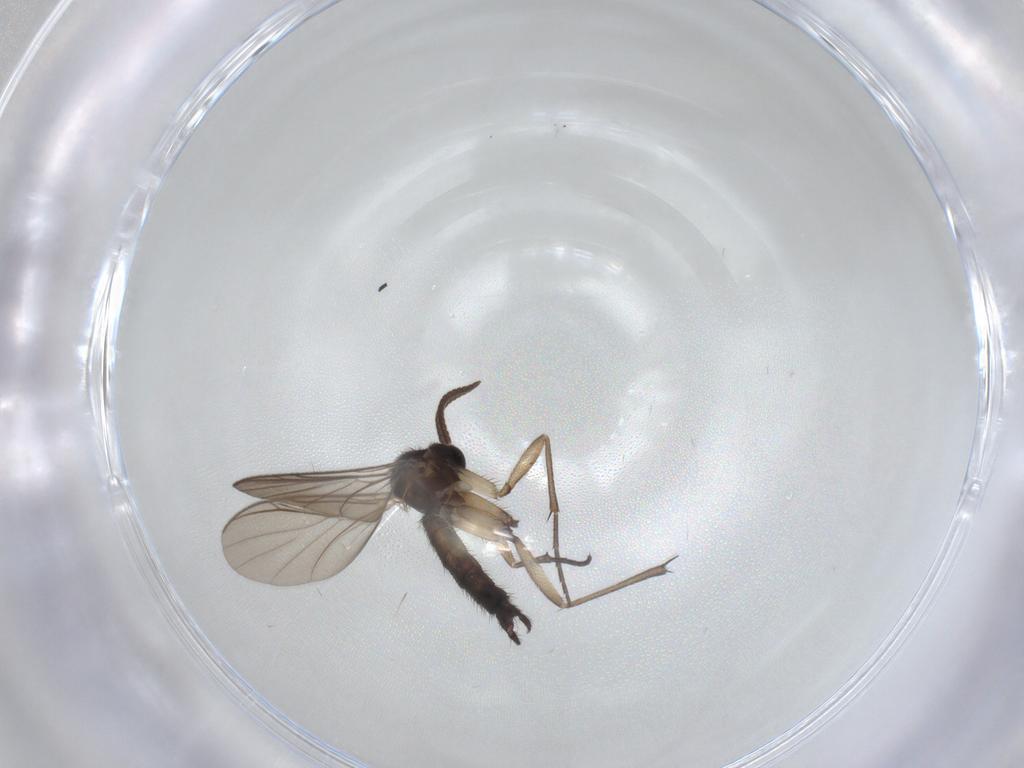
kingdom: Animalia
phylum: Arthropoda
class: Insecta
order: Diptera
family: Keroplatidae
